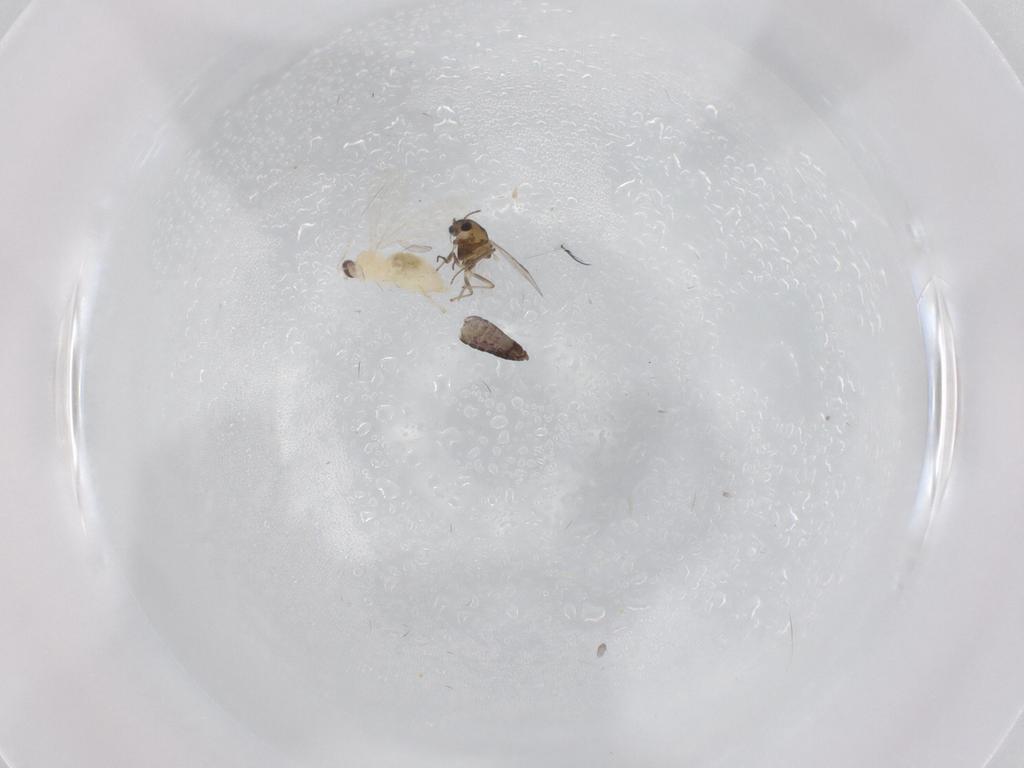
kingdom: Animalia
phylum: Arthropoda
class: Insecta
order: Diptera
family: Cecidomyiidae
